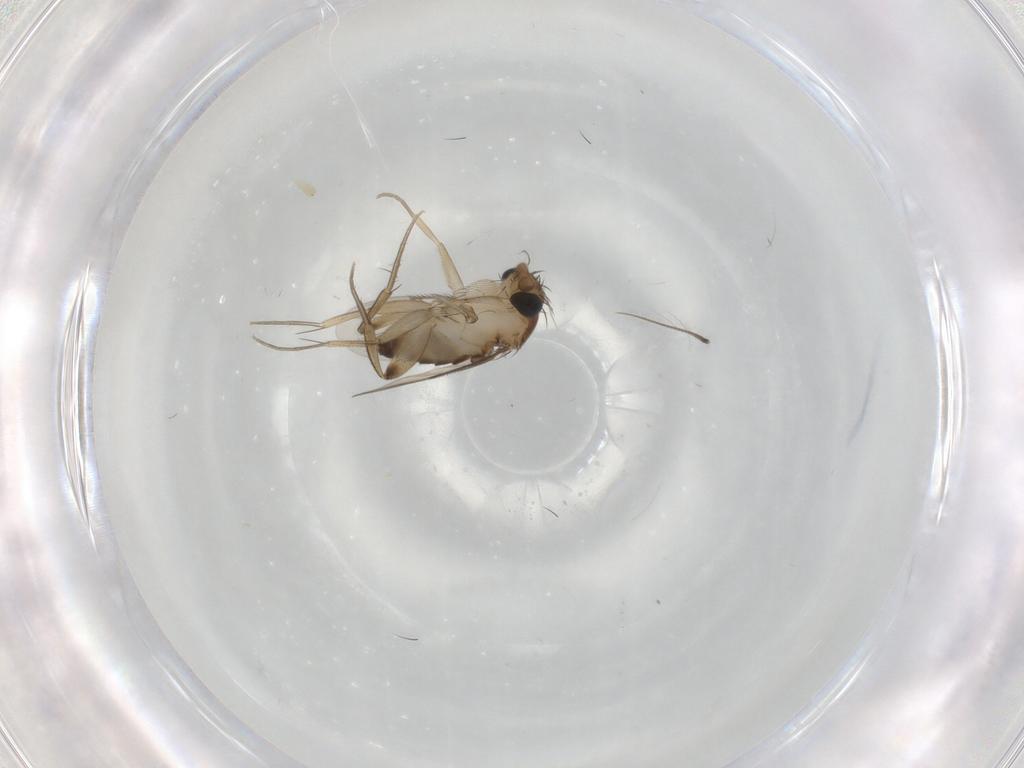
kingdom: Animalia
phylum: Arthropoda
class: Insecta
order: Diptera
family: Phoridae
